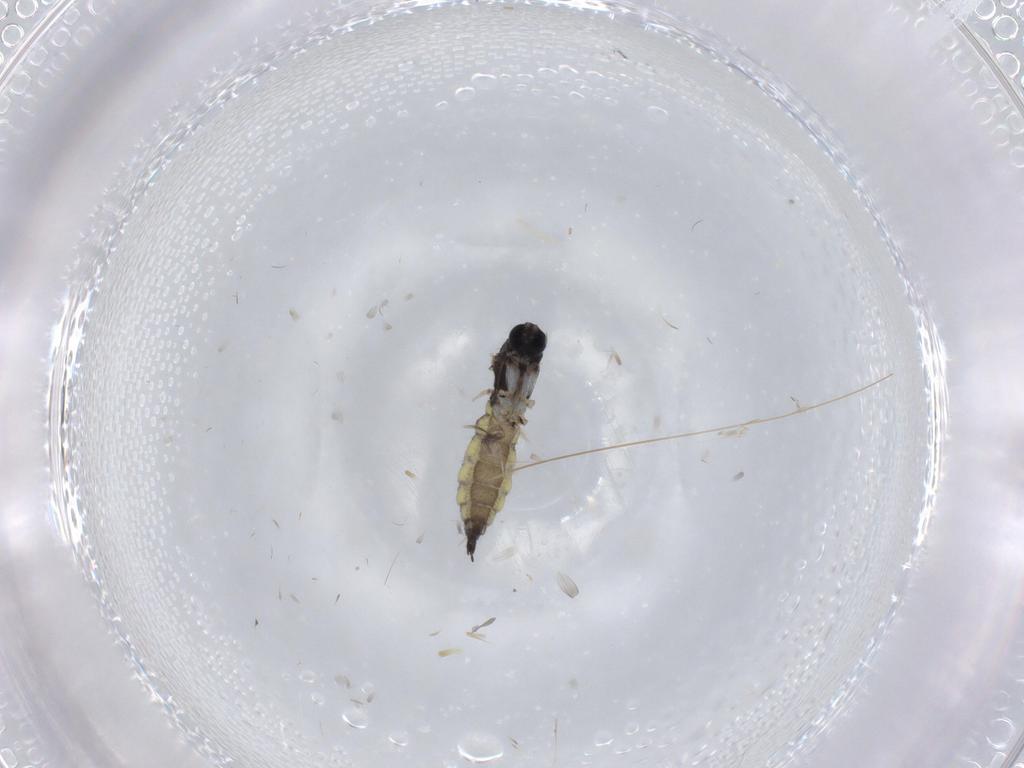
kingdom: Animalia
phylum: Arthropoda
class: Insecta
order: Diptera
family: Sciaridae
